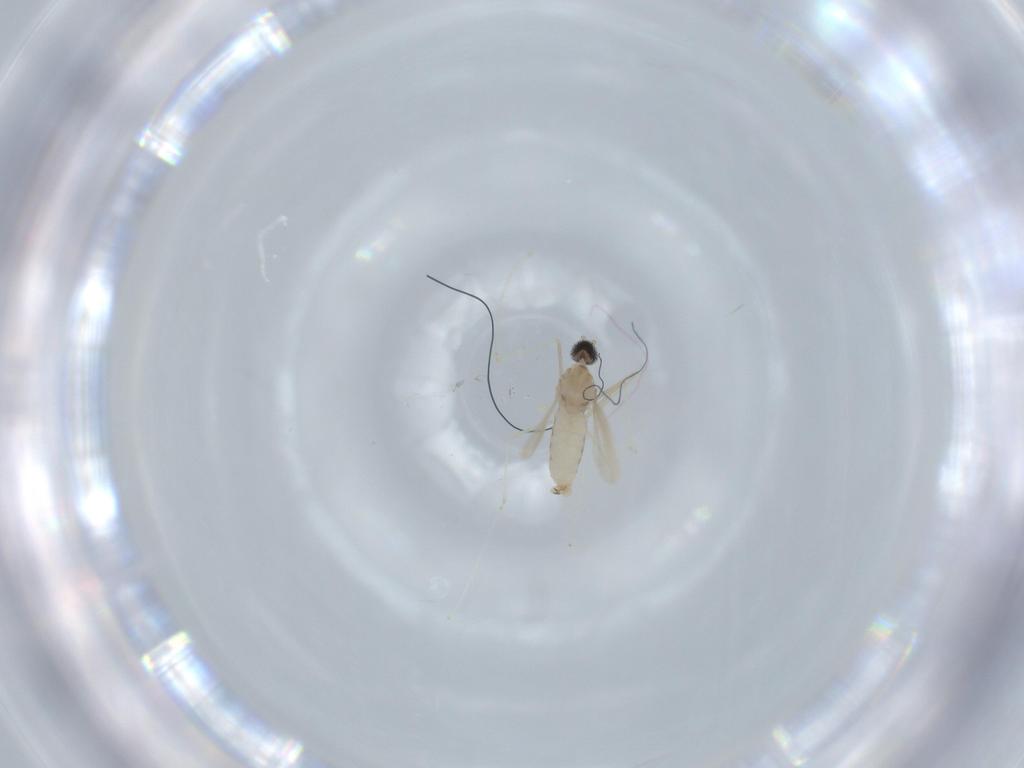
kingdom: Animalia
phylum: Arthropoda
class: Insecta
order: Diptera
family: Cecidomyiidae
